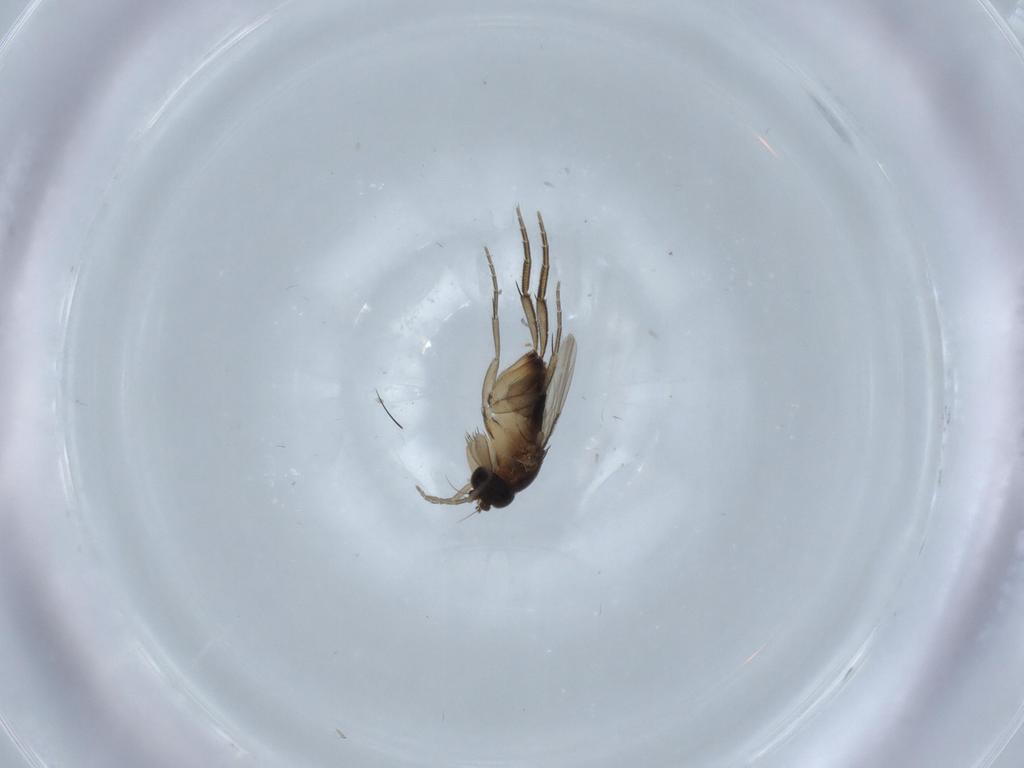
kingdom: Animalia
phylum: Arthropoda
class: Insecta
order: Diptera
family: Phoridae
